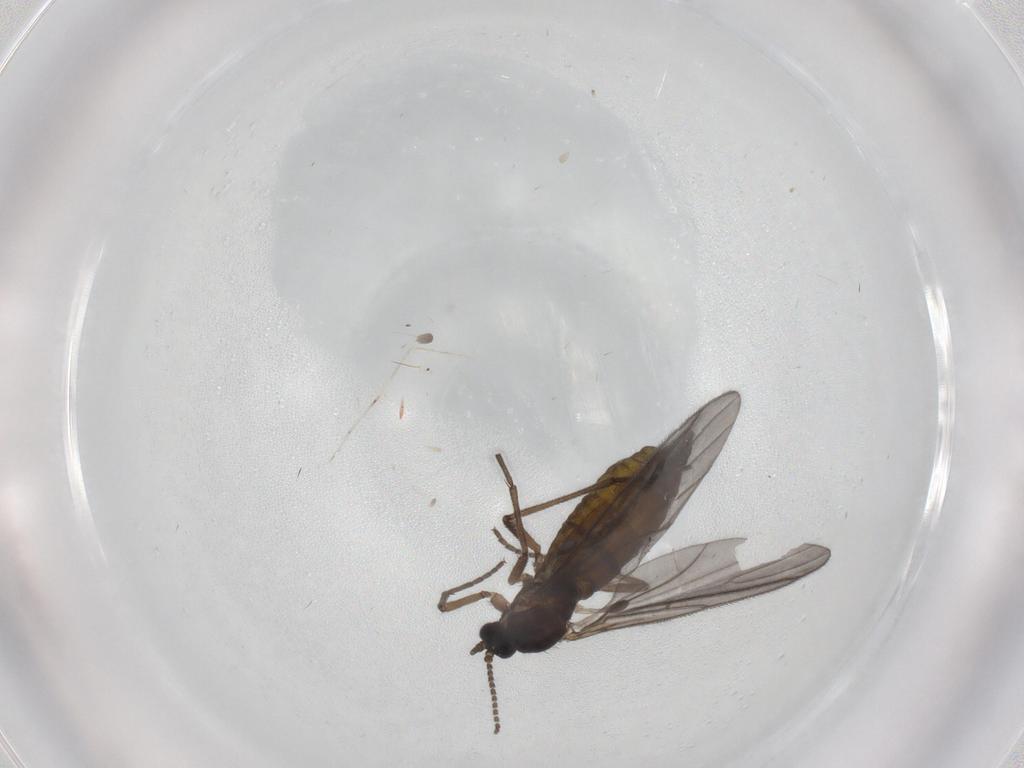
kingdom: Animalia
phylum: Arthropoda
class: Insecta
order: Diptera
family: Sciaridae
